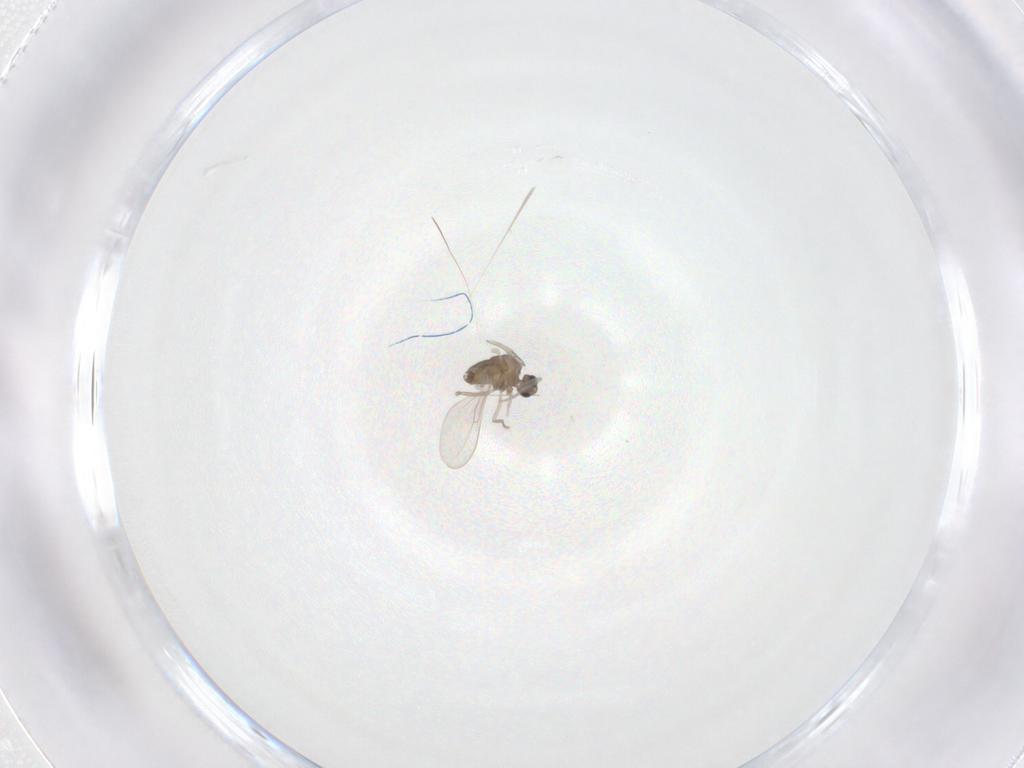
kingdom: Animalia
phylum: Arthropoda
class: Insecta
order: Diptera
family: Cecidomyiidae
